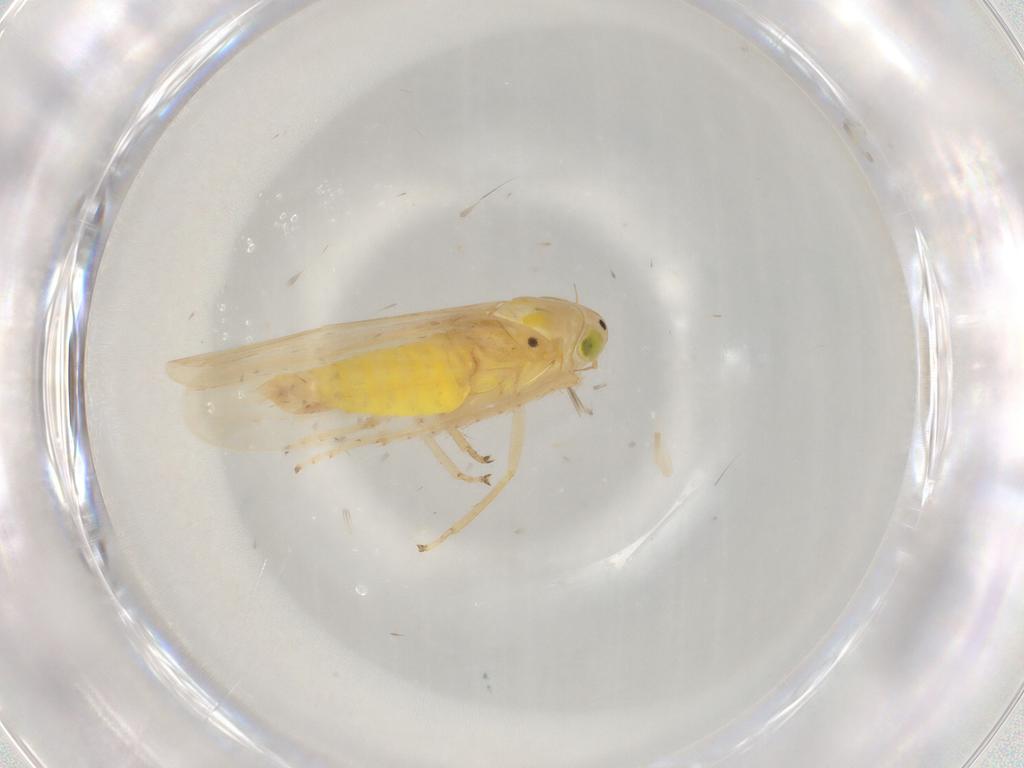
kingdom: Animalia
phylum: Arthropoda
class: Insecta
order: Hemiptera
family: Cicadellidae
